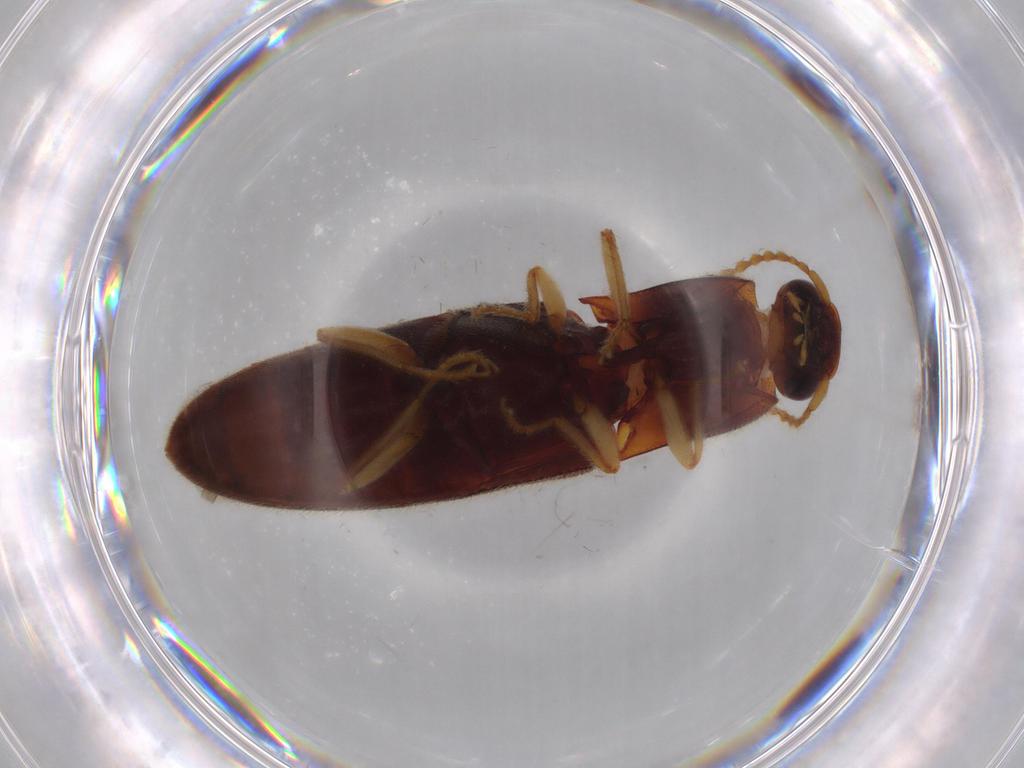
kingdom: Animalia
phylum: Arthropoda
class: Insecta
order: Coleoptera
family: Elateridae
